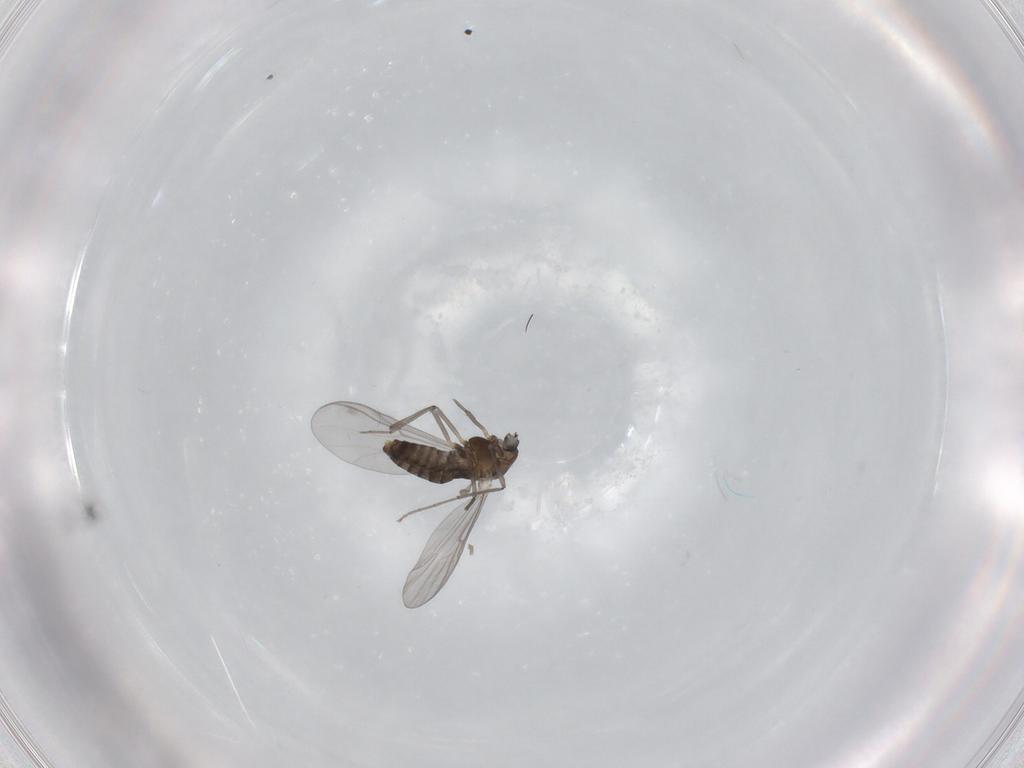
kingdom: Animalia
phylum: Arthropoda
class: Insecta
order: Diptera
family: Chironomidae
